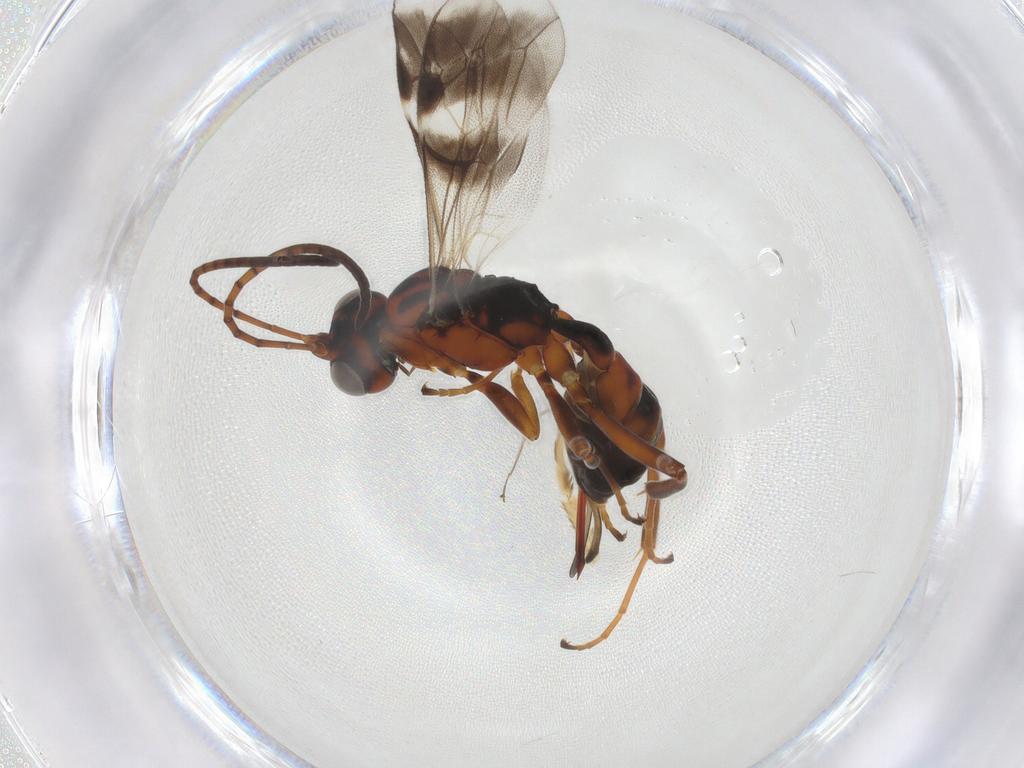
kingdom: Animalia
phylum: Arthropoda
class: Insecta
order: Hymenoptera
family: Ichneumonidae
